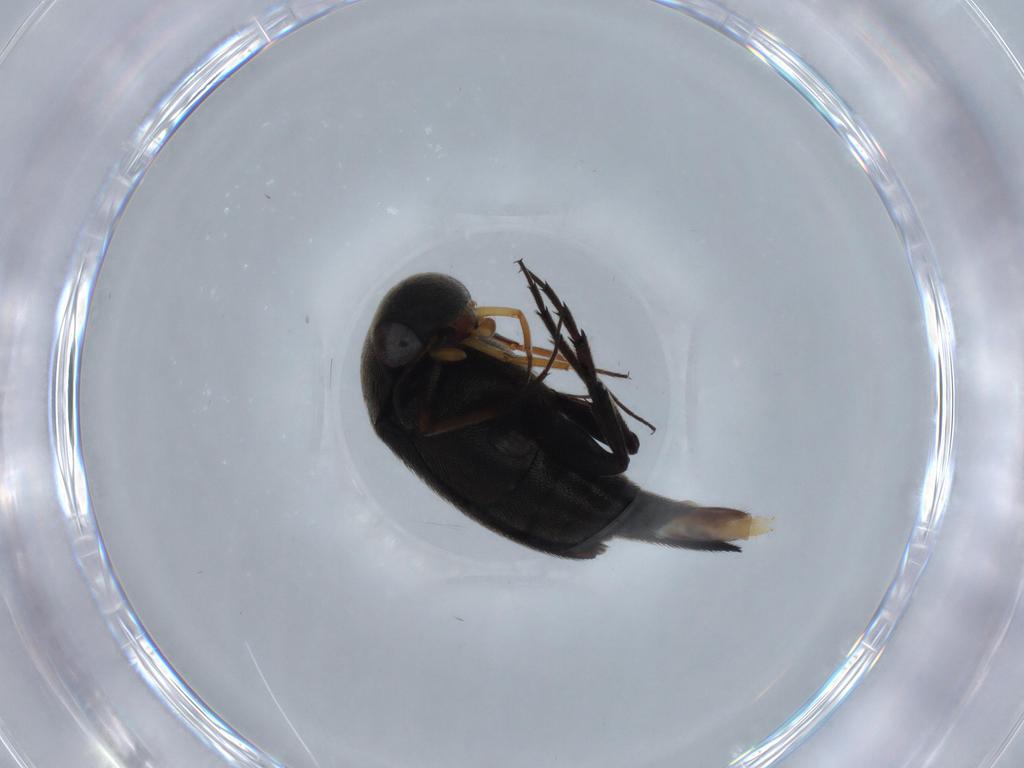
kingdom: Animalia
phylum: Arthropoda
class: Insecta
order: Coleoptera
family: Mordellidae
